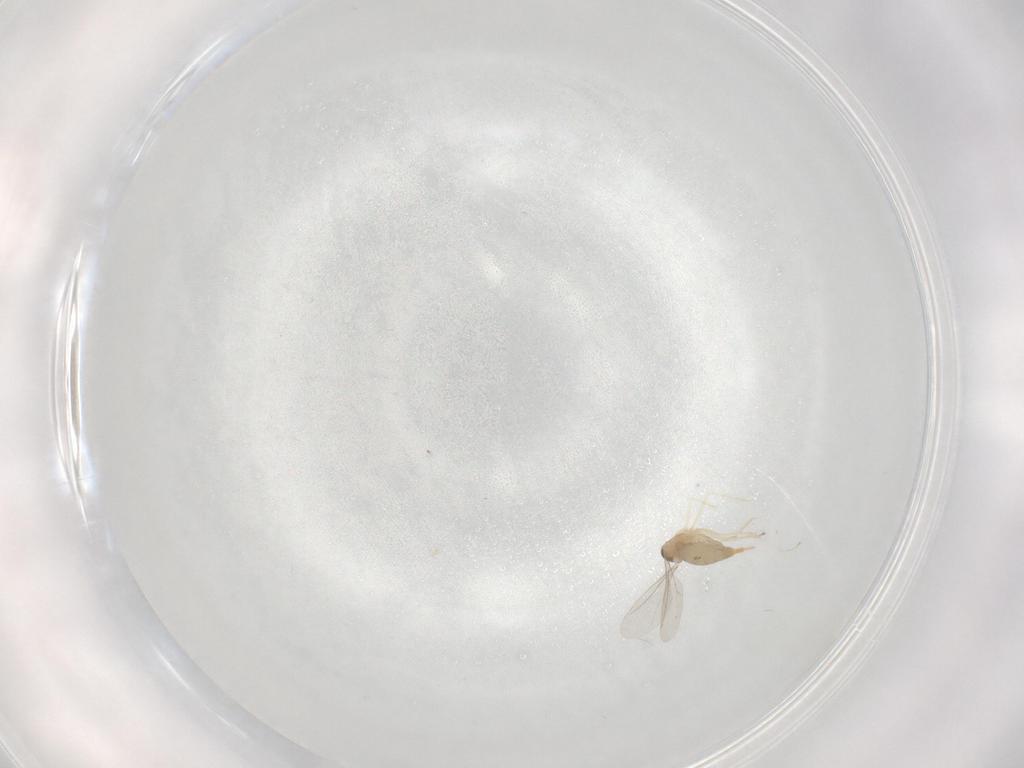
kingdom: Animalia
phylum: Arthropoda
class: Insecta
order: Diptera
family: Cecidomyiidae
